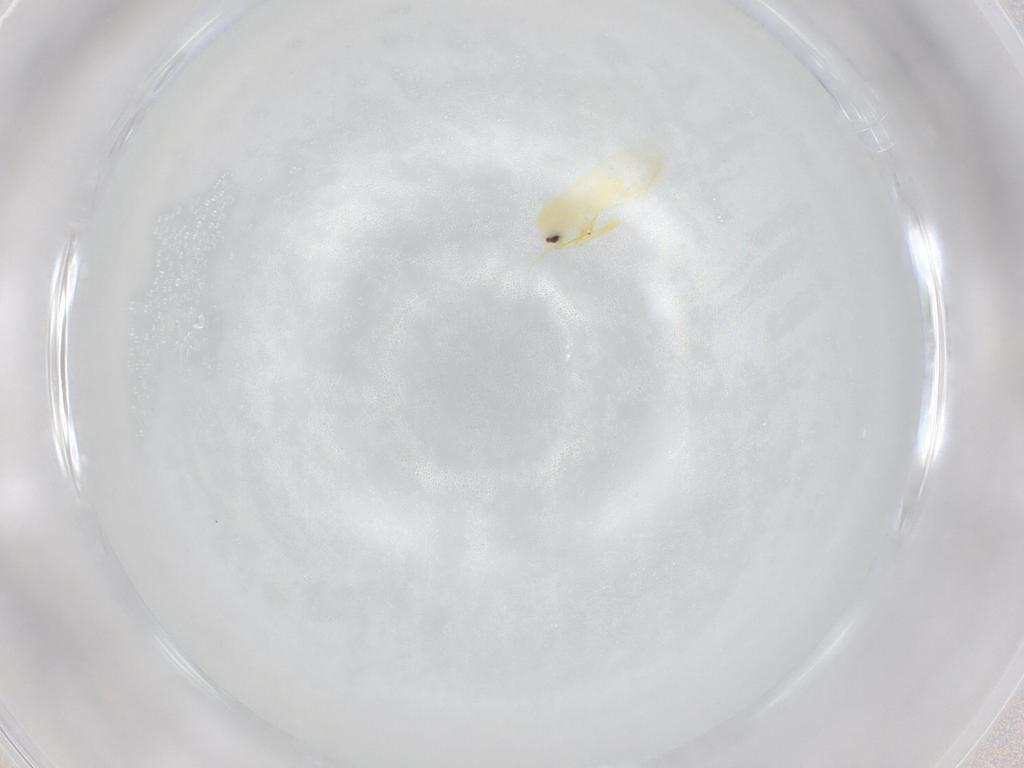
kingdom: Animalia
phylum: Arthropoda
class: Insecta
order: Hemiptera
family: Aleyrodidae
